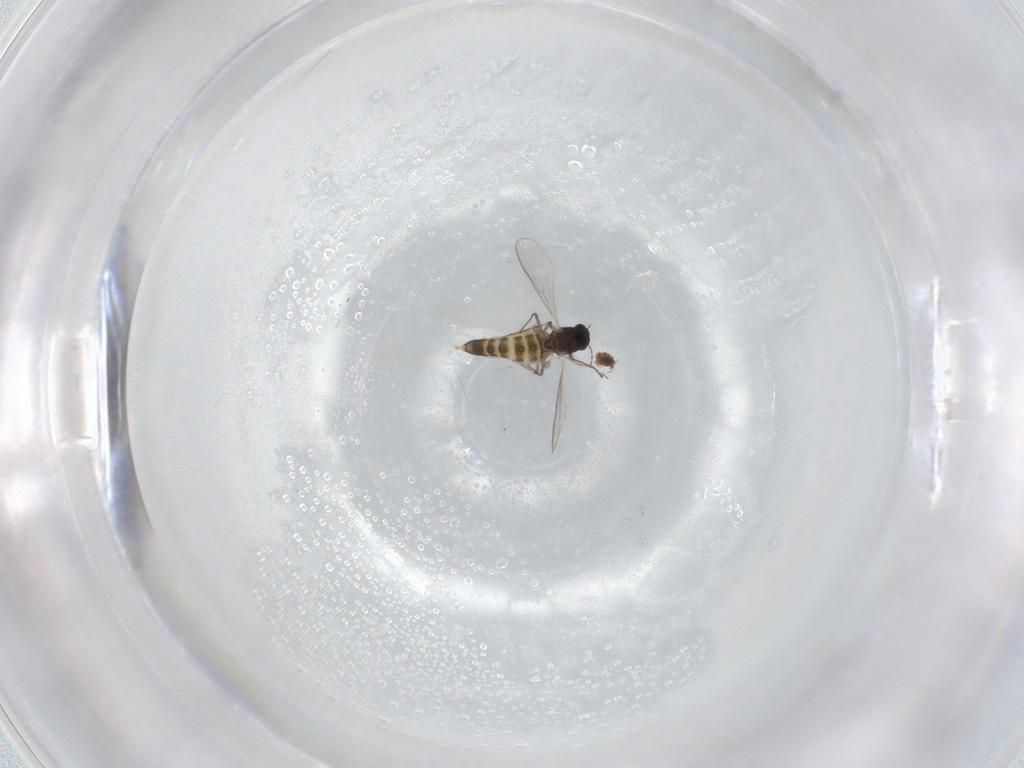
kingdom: Animalia
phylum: Arthropoda
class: Insecta
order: Diptera
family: Chironomidae
